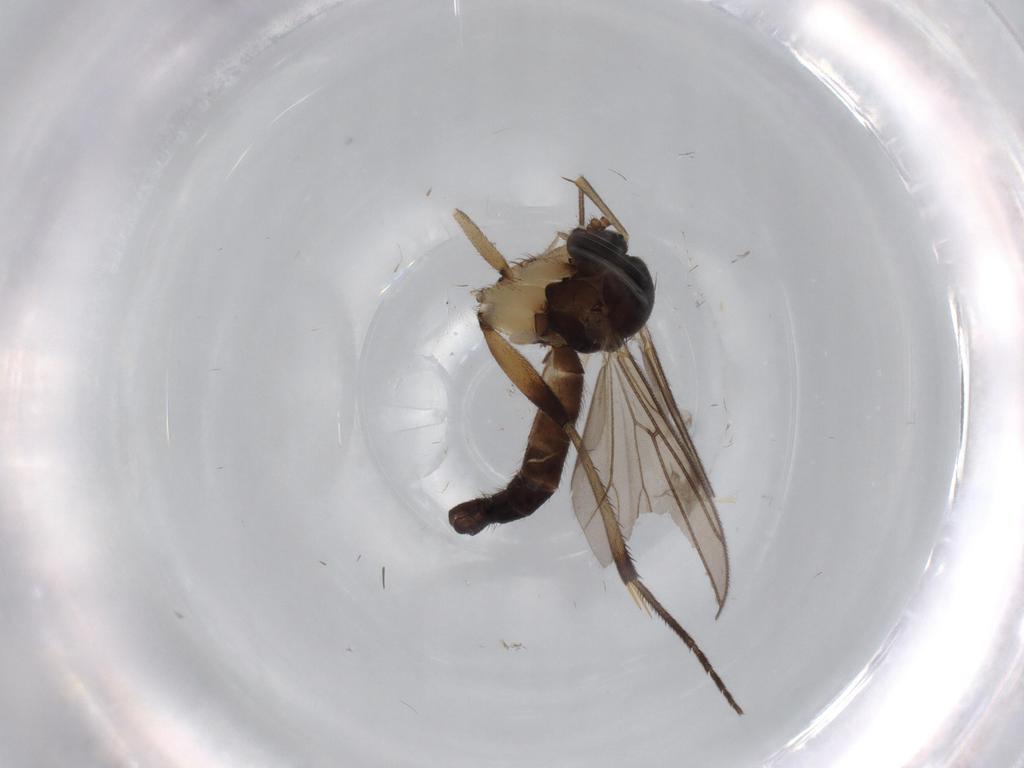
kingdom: Animalia
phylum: Arthropoda
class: Insecta
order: Diptera
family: Mycetophilidae
